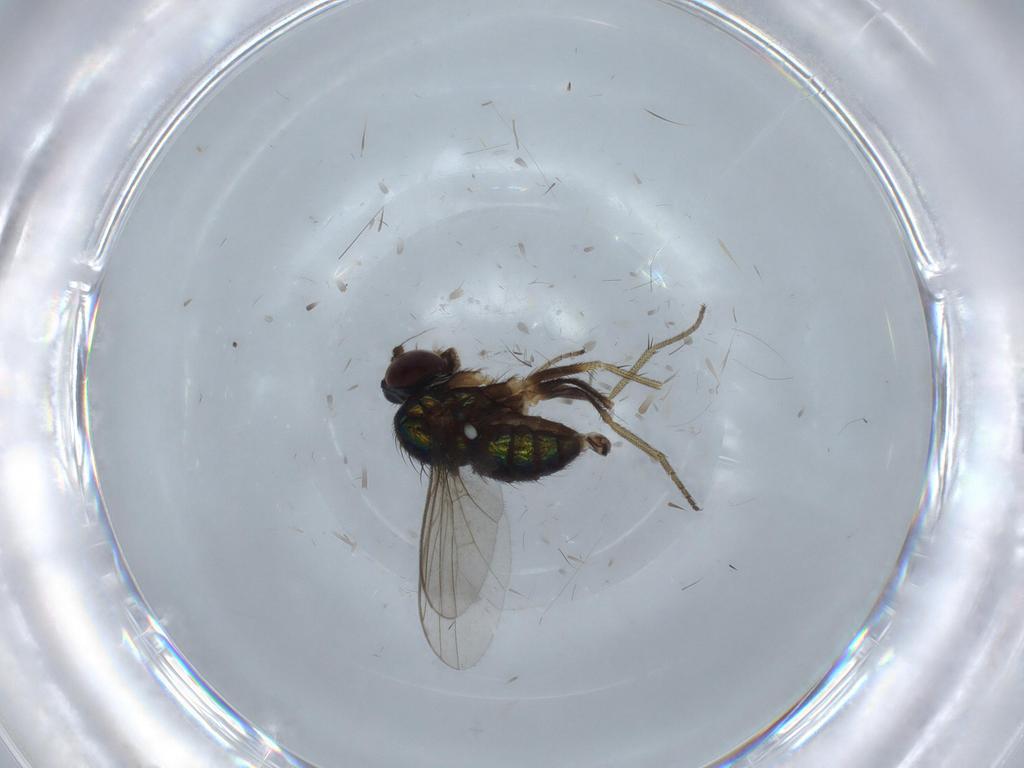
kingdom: Animalia
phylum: Arthropoda
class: Insecta
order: Diptera
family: Dolichopodidae
